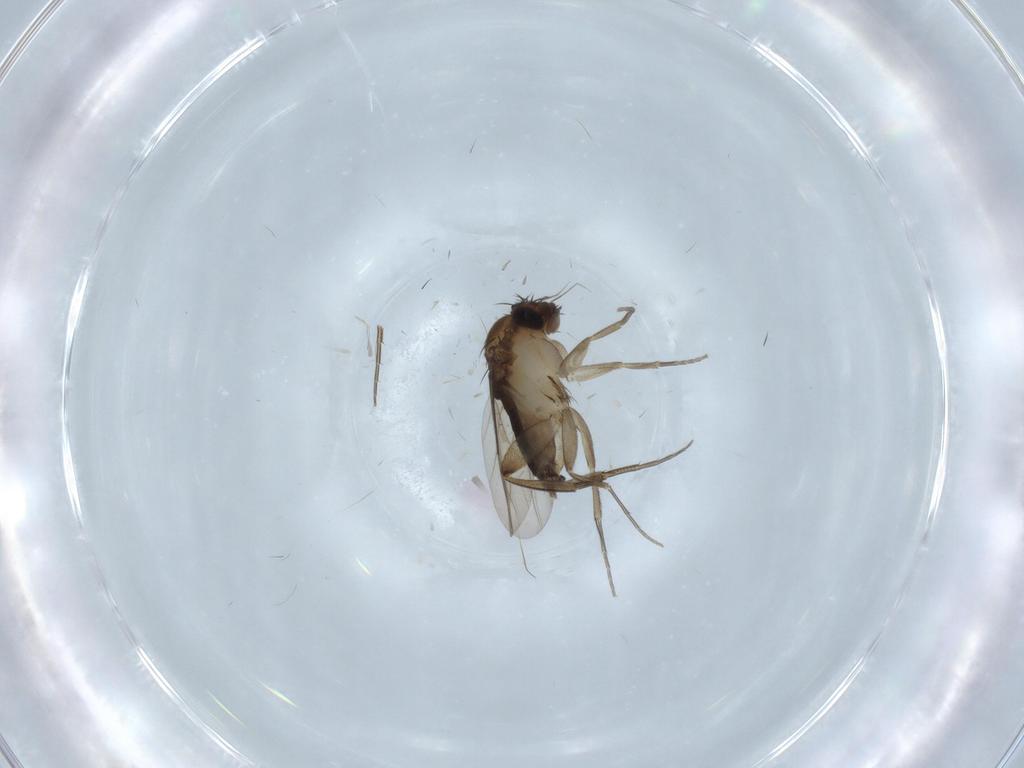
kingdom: Animalia
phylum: Arthropoda
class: Insecta
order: Diptera
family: Phoridae
